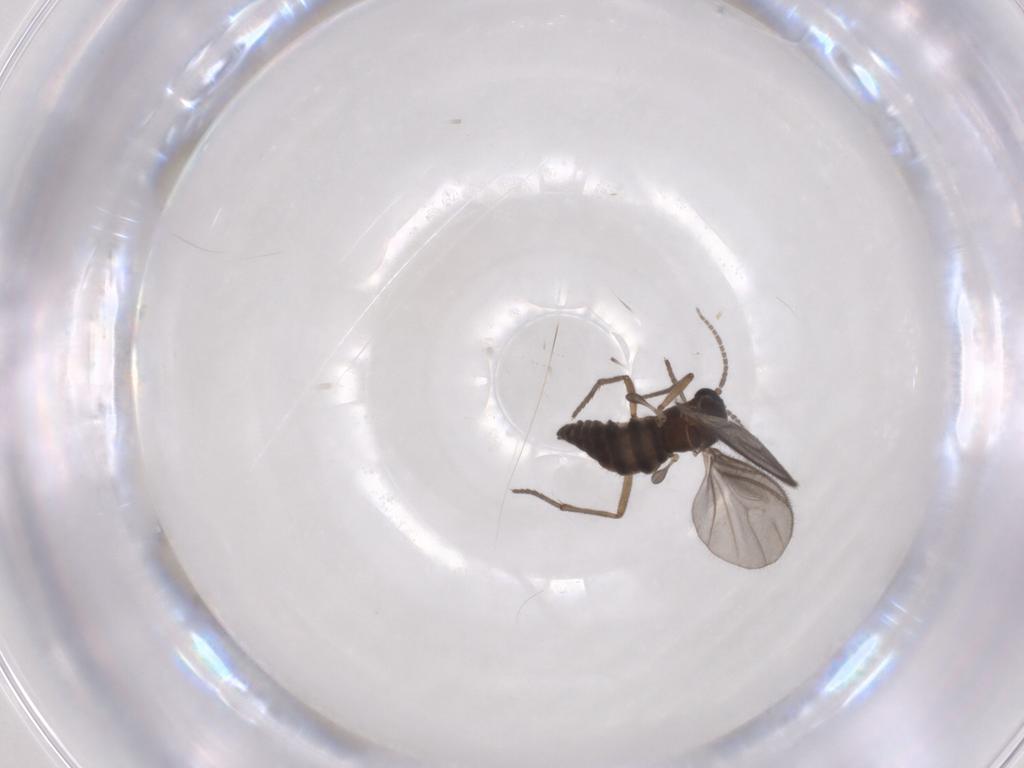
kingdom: Animalia
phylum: Arthropoda
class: Insecta
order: Diptera
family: Sciaridae
